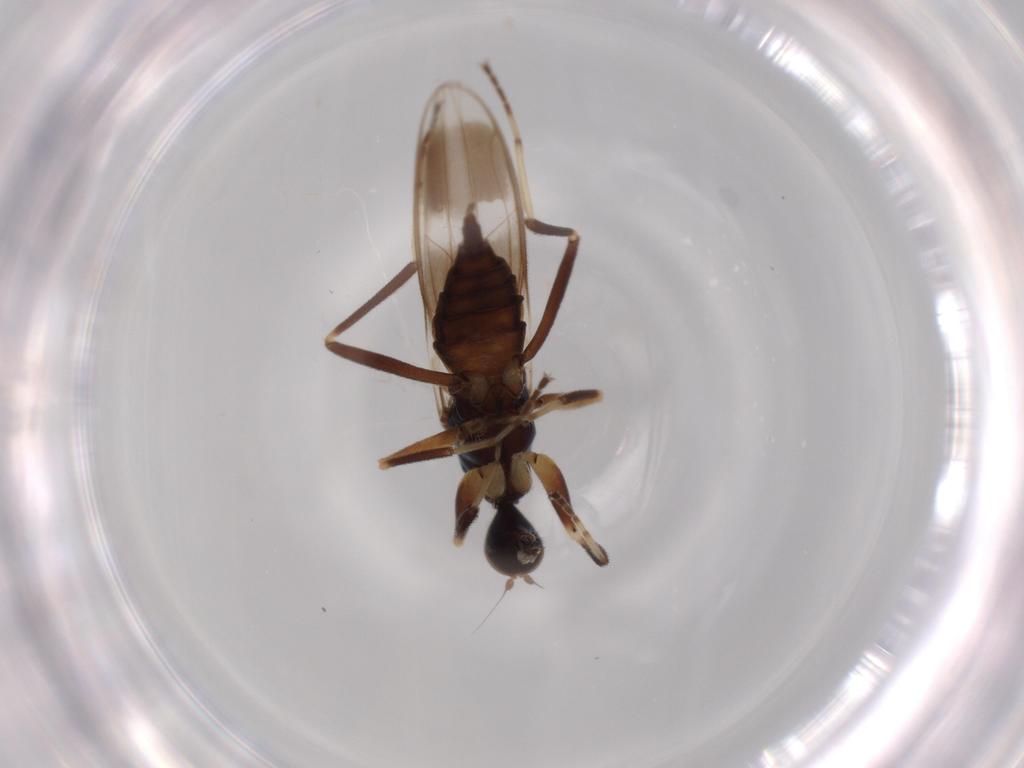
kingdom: Animalia
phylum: Arthropoda
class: Insecta
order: Diptera
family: Hybotidae
